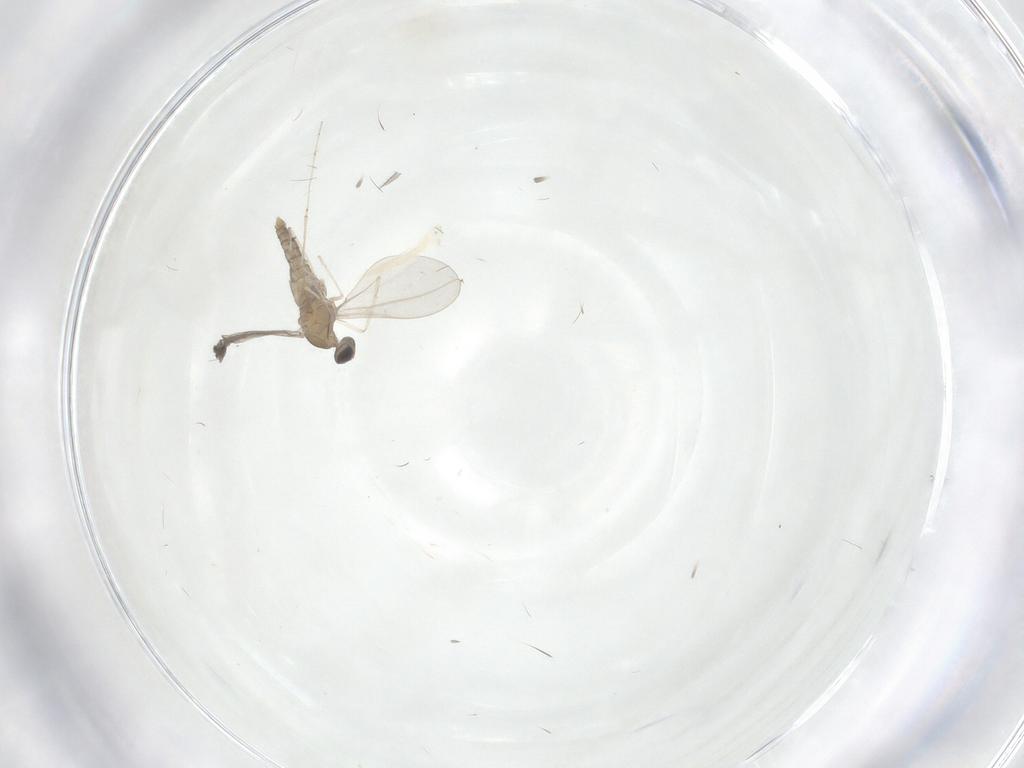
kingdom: Animalia
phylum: Arthropoda
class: Insecta
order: Diptera
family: Cecidomyiidae
